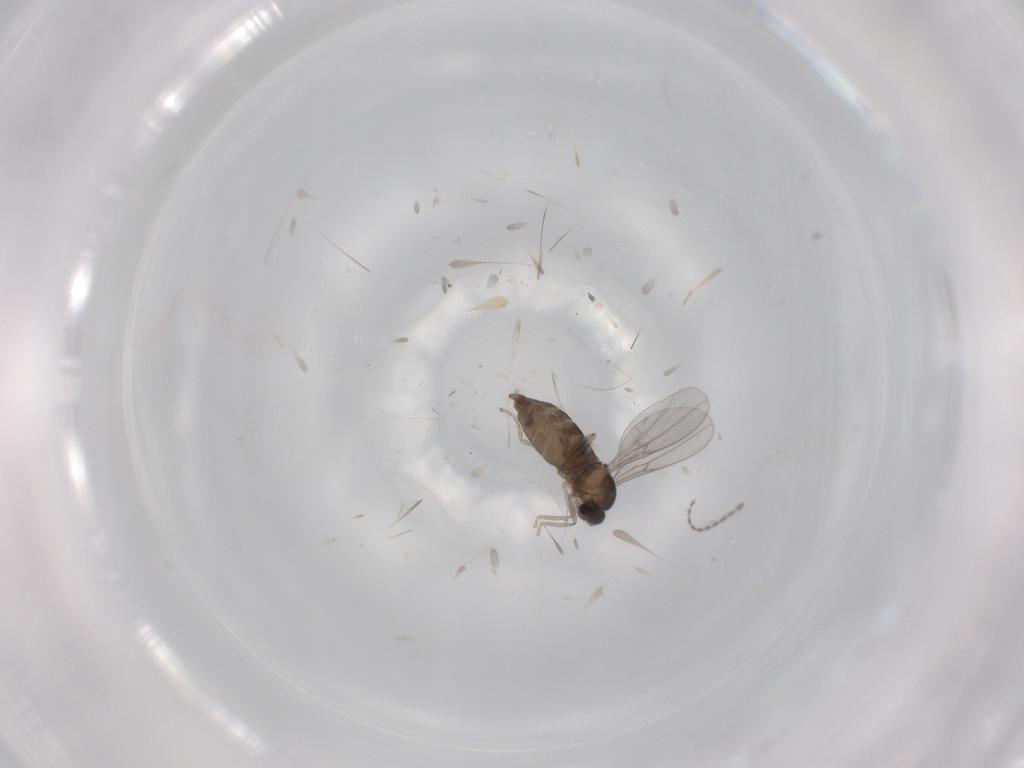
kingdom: Animalia
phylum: Arthropoda
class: Insecta
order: Diptera
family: Cecidomyiidae
